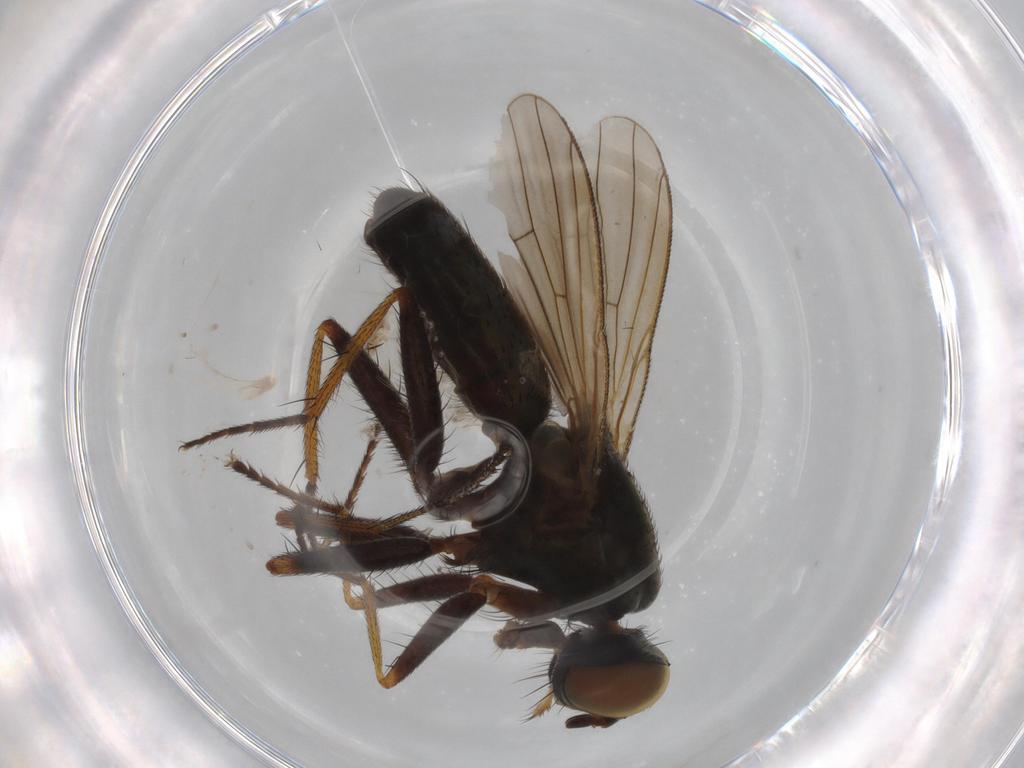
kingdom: Animalia
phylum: Arthropoda
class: Insecta
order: Diptera
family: Muscidae
